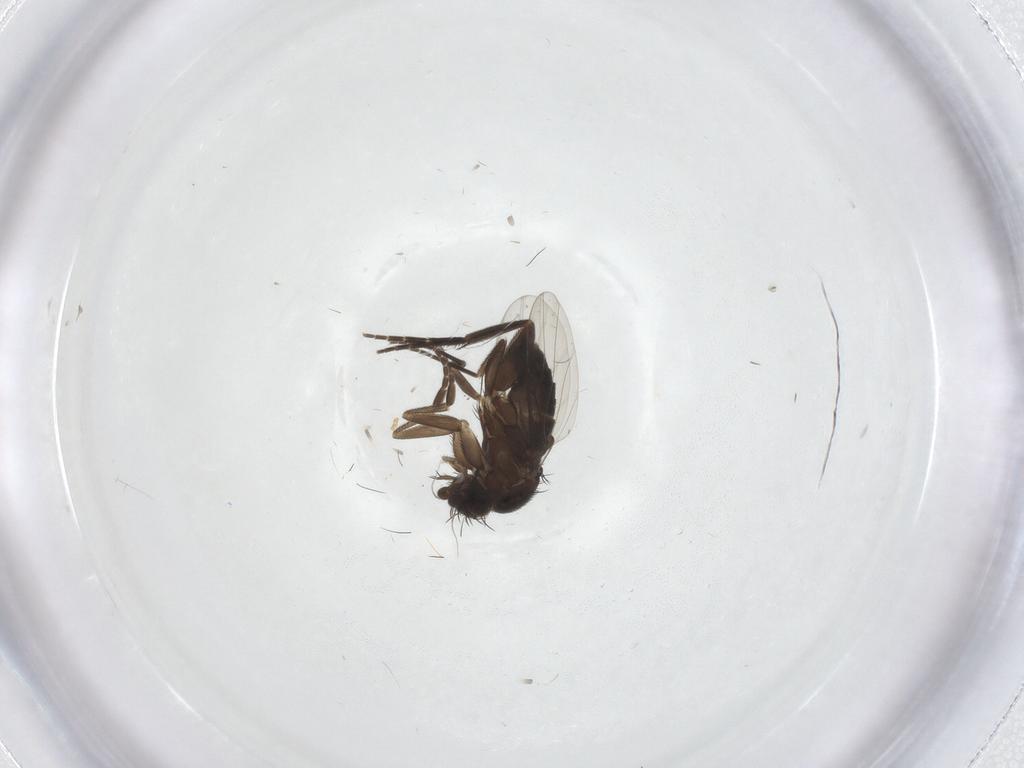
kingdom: Animalia
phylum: Arthropoda
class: Insecta
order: Diptera
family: Phoridae
